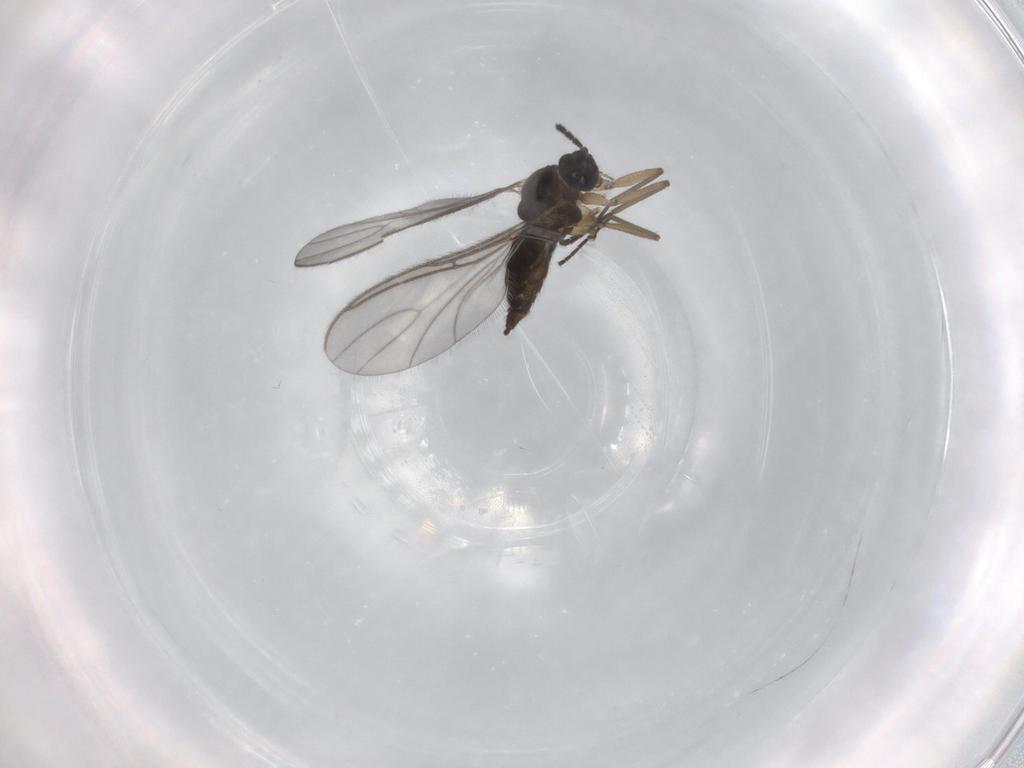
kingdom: Animalia
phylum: Arthropoda
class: Insecta
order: Diptera
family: Sciaridae
